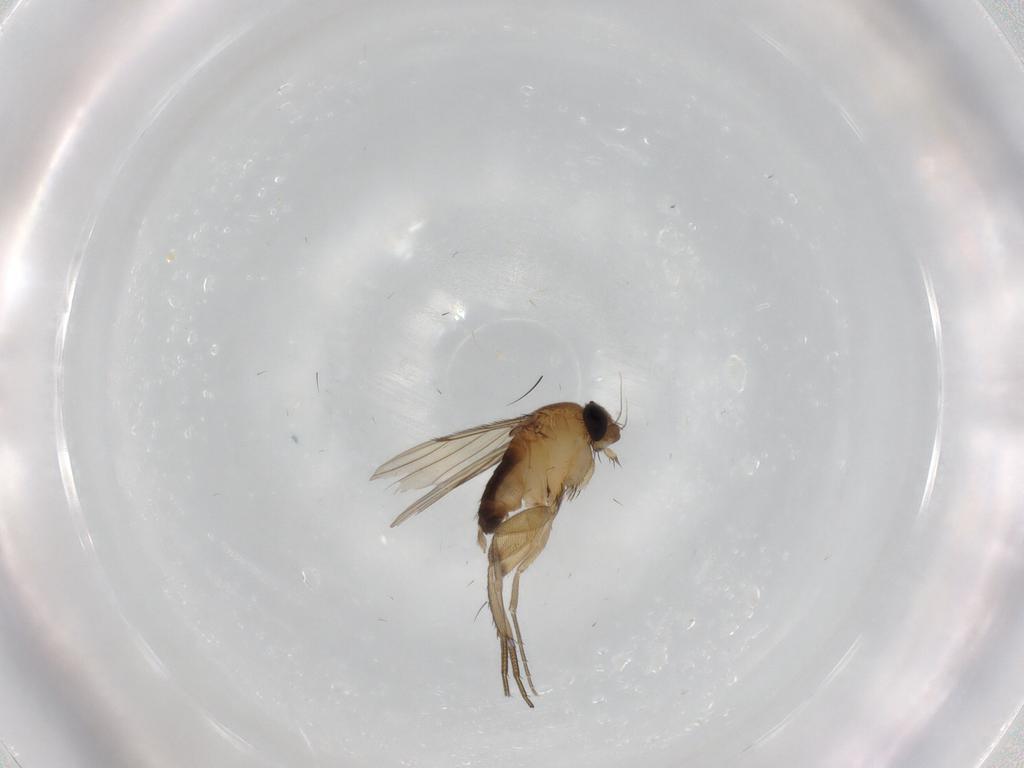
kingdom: Animalia
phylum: Arthropoda
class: Insecta
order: Diptera
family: Phoridae
